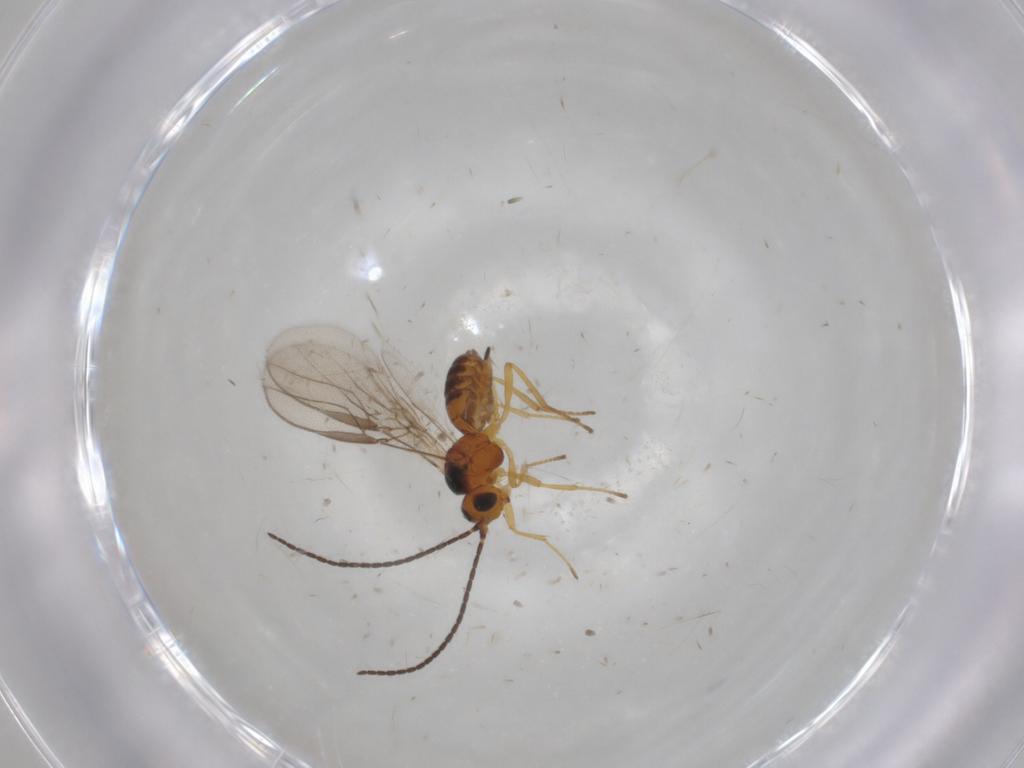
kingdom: Animalia
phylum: Arthropoda
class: Insecta
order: Hymenoptera
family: Braconidae
